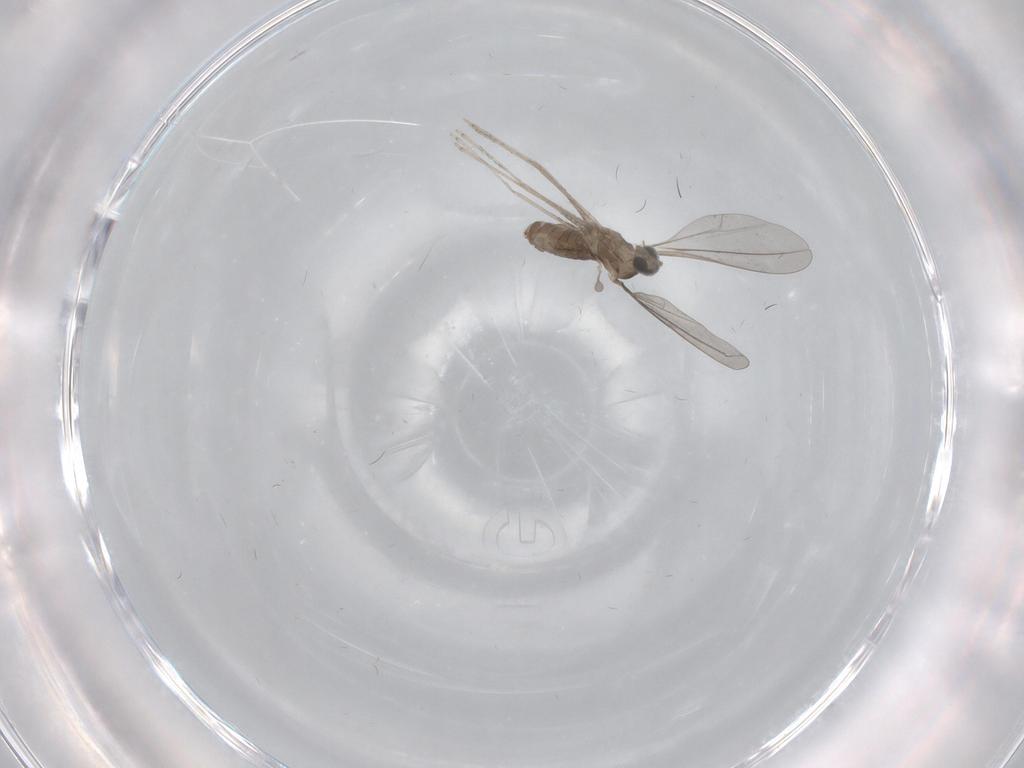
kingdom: Animalia
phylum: Arthropoda
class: Insecta
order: Diptera
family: Cecidomyiidae
